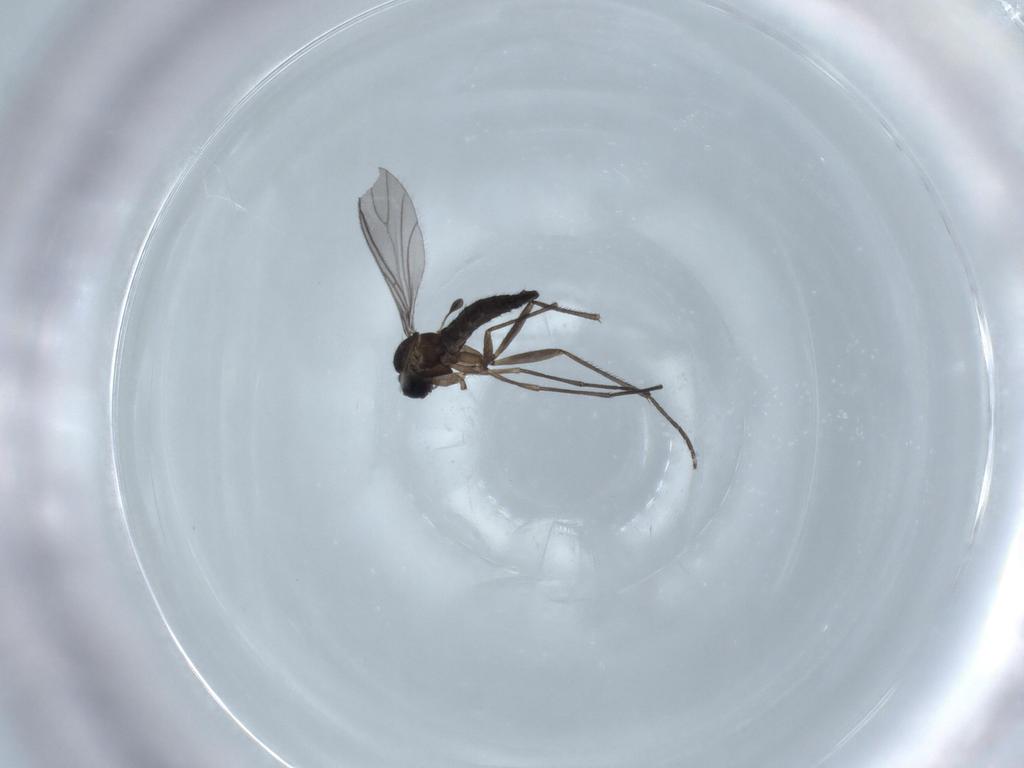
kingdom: Animalia
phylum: Arthropoda
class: Insecta
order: Diptera
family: Sciaridae
